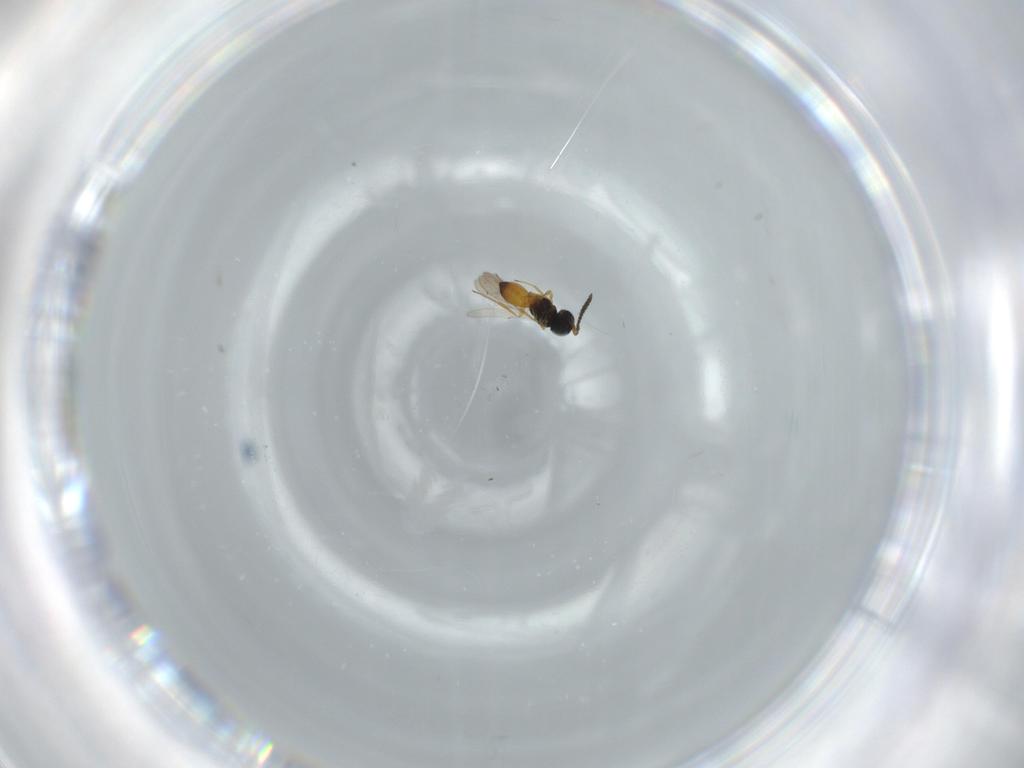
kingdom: Animalia
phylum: Arthropoda
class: Insecta
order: Hymenoptera
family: Scelionidae
